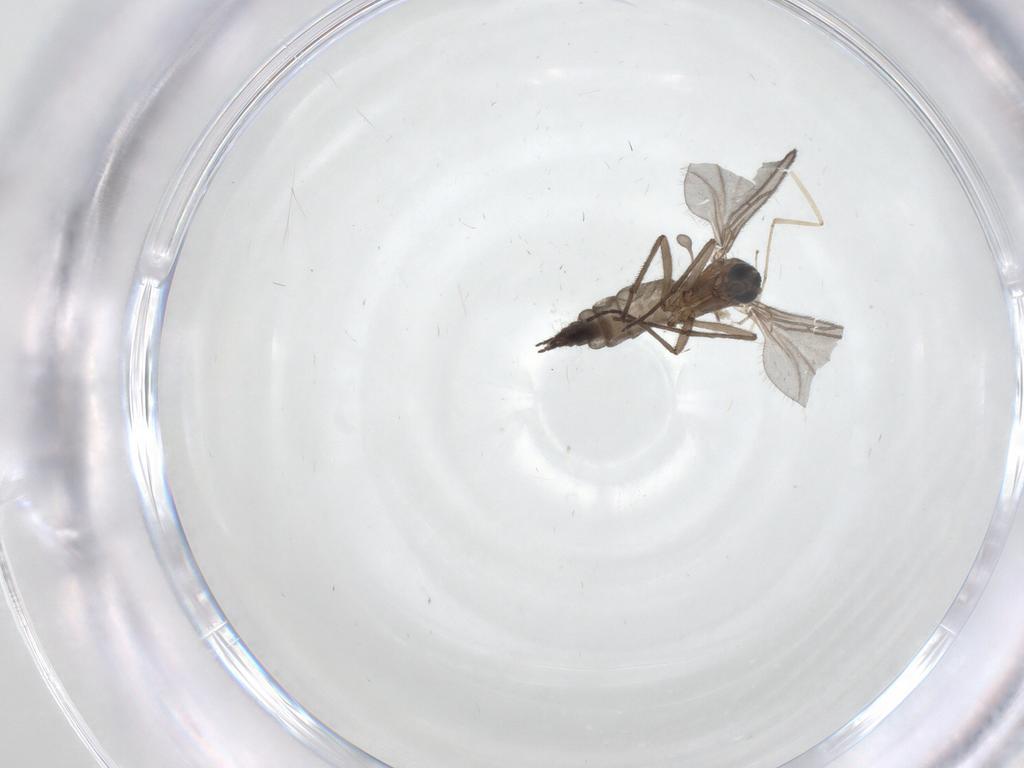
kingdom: Animalia
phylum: Arthropoda
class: Insecta
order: Diptera
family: Sciaridae
